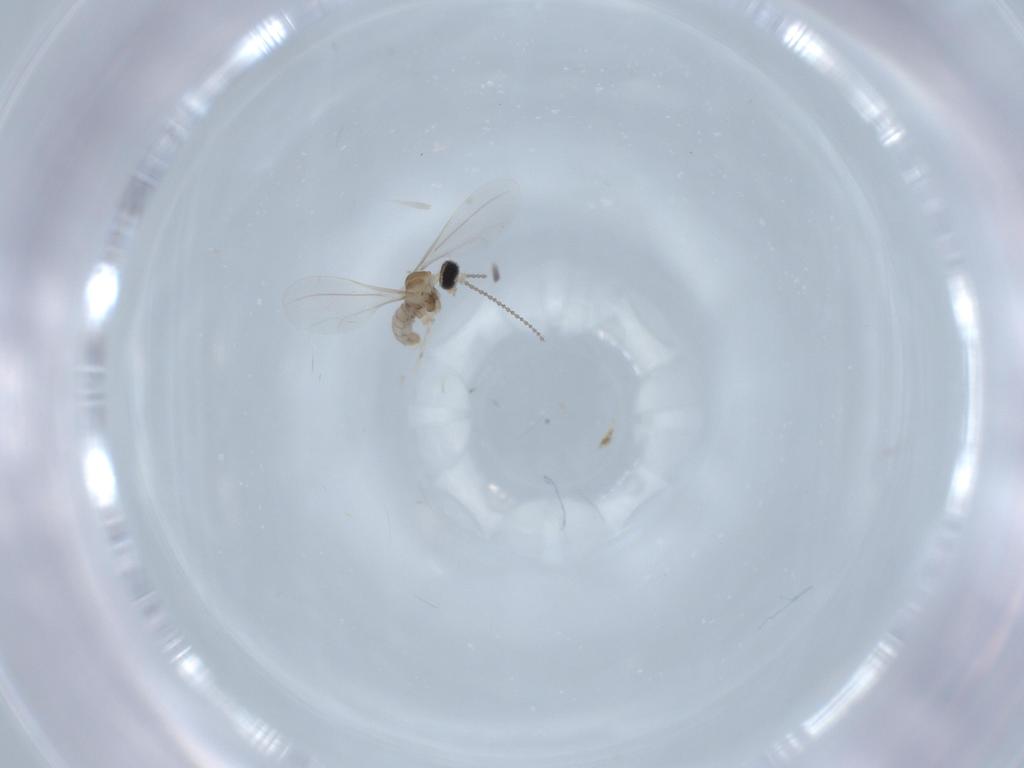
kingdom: Animalia
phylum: Arthropoda
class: Insecta
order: Diptera
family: Cecidomyiidae
